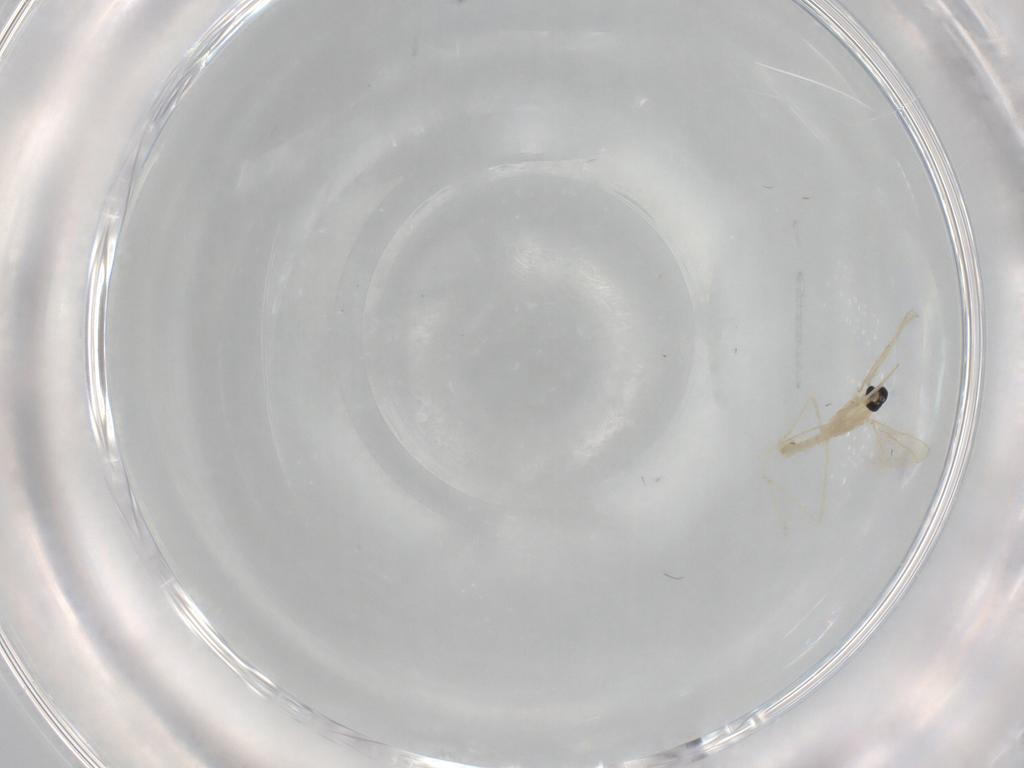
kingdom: Animalia
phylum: Arthropoda
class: Insecta
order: Diptera
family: Cecidomyiidae
